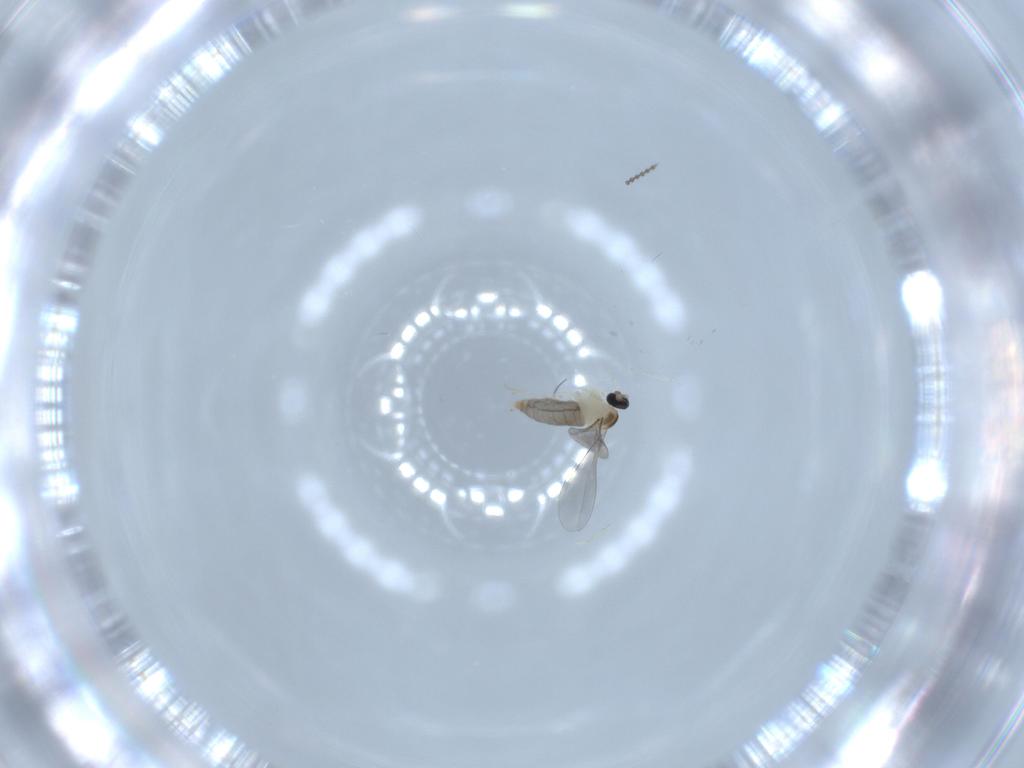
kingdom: Animalia
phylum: Arthropoda
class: Insecta
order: Diptera
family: Cecidomyiidae
